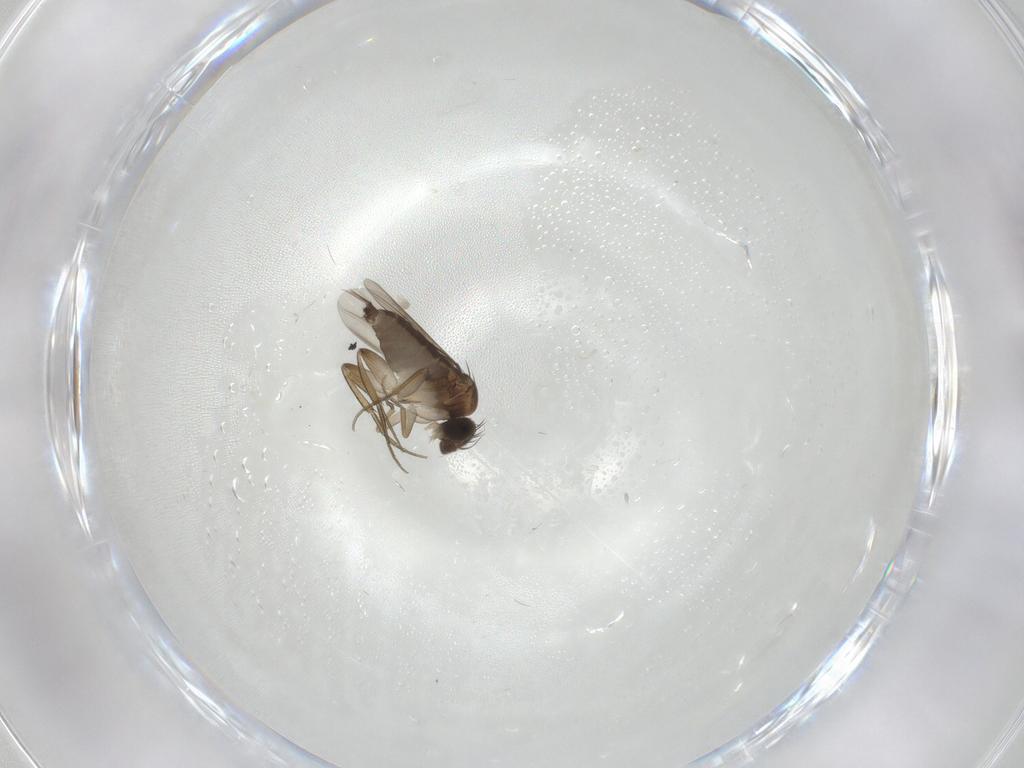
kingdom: Animalia
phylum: Arthropoda
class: Insecta
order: Diptera
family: Phoridae
